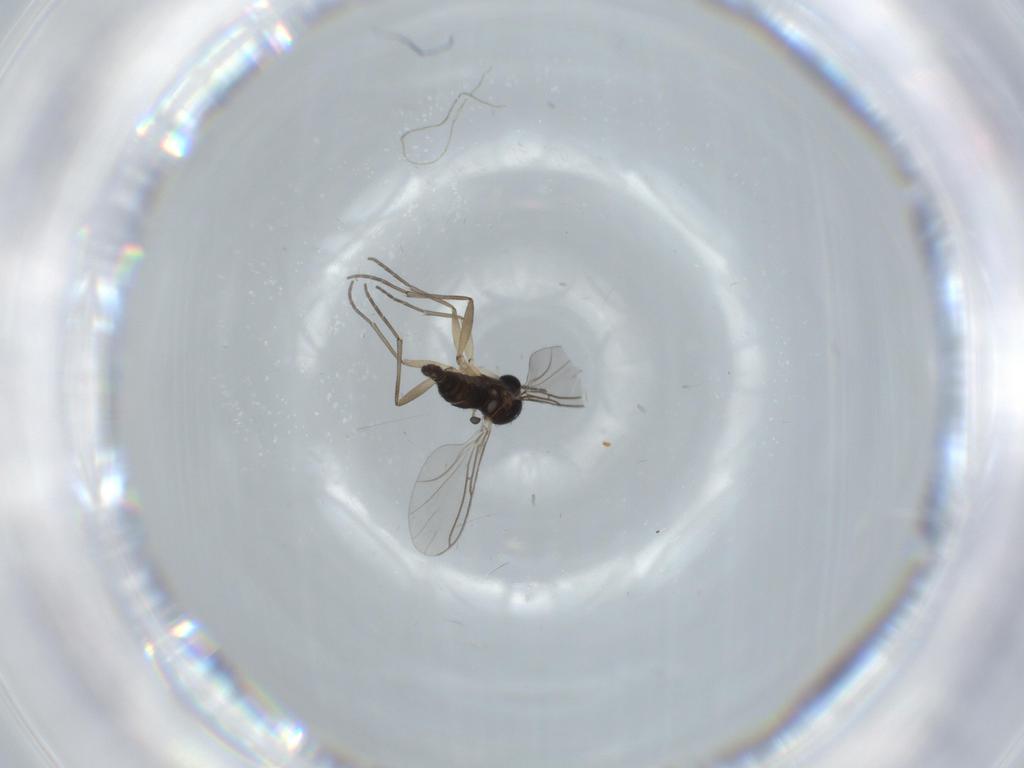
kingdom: Animalia
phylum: Arthropoda
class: Insecta
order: Diptera
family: Sciaridae
